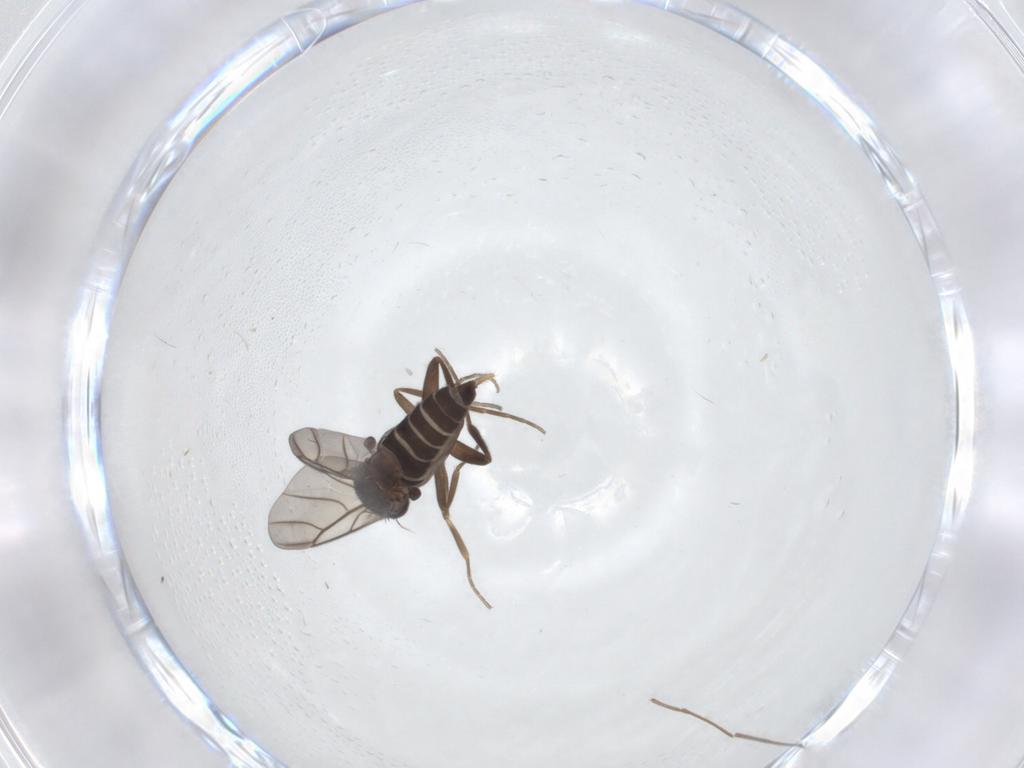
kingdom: Animalia
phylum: Arthropoda
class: Insecta
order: Diptera
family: Chironomidae
